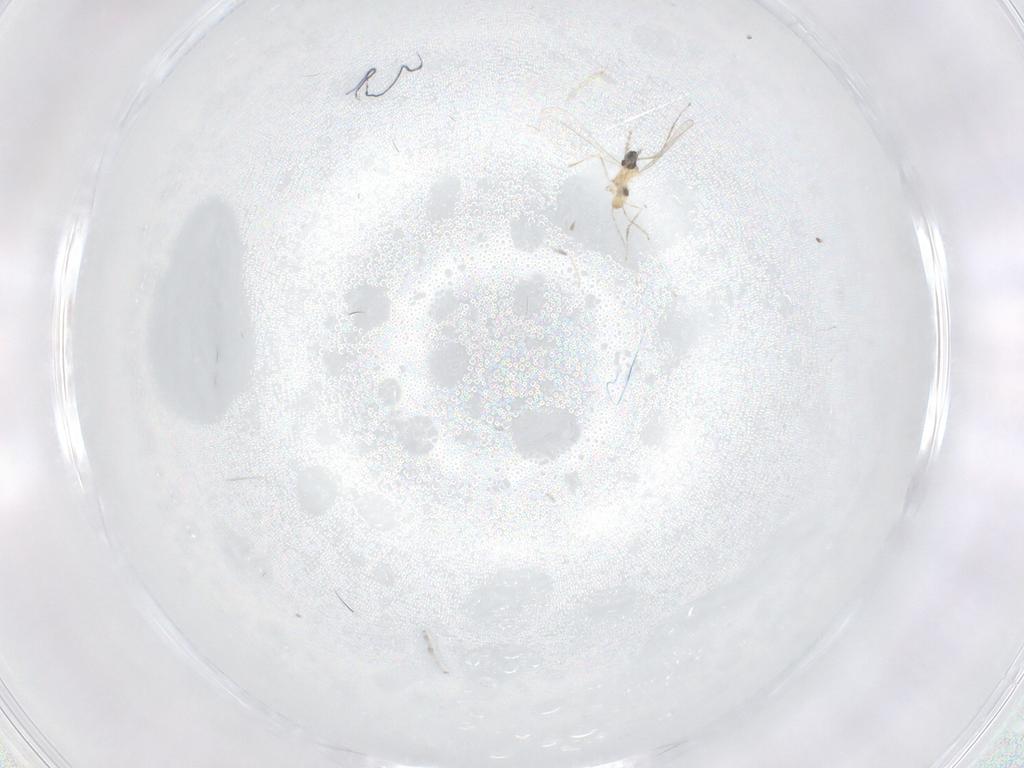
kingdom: Animalia
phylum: Arthropoda
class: Insecta
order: Diptera
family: Cecidomyiidae
